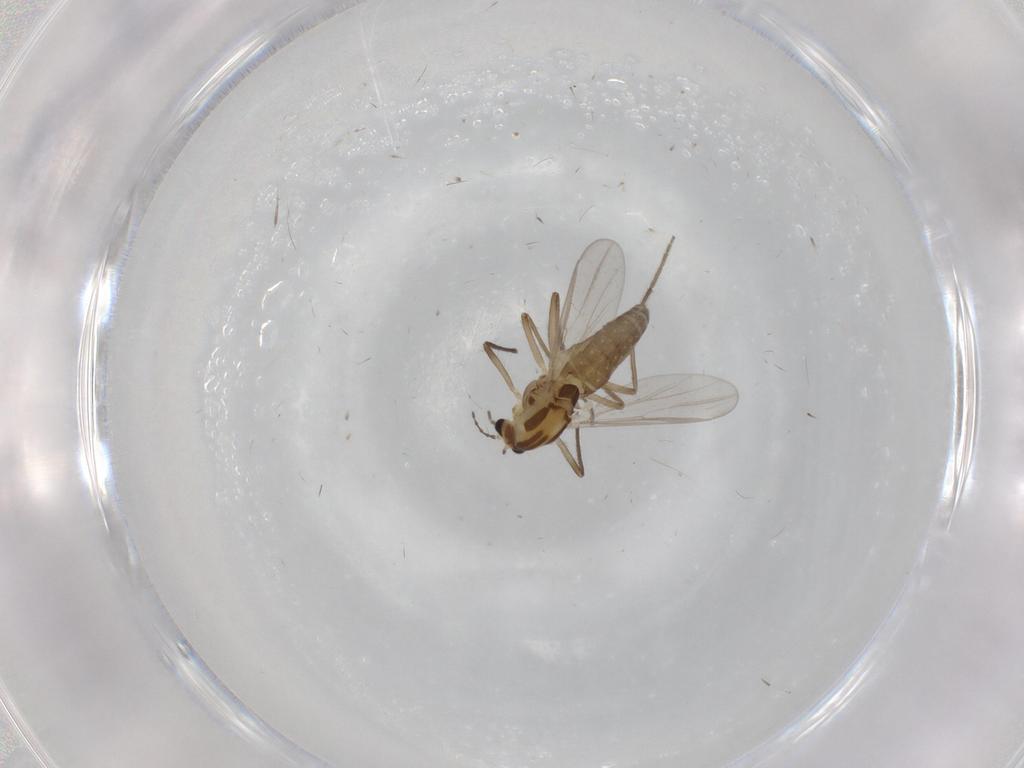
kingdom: Animalia
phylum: Arthropoda
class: Insecta
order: Diptera
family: Chironomidae
